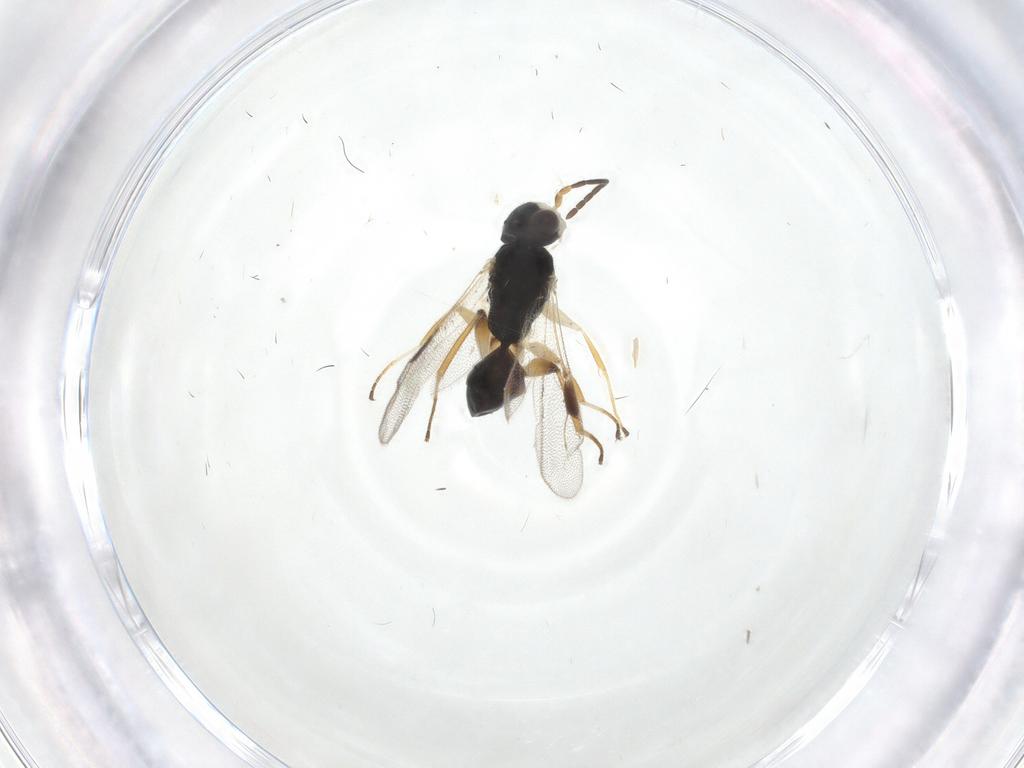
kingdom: Animalia
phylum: Arthropoda
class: Insecta
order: Hymenoptera
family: Dryinidae
